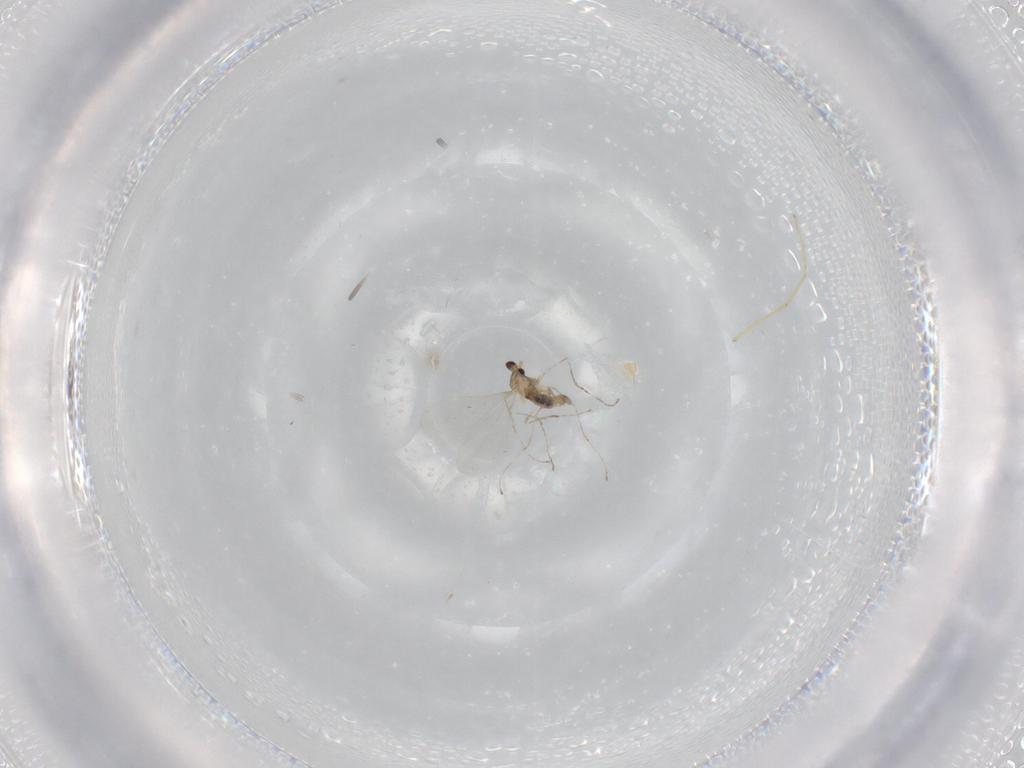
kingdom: Animalia
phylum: Arthropoda
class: Insecta
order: Diptera
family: Cecidomyiidae
